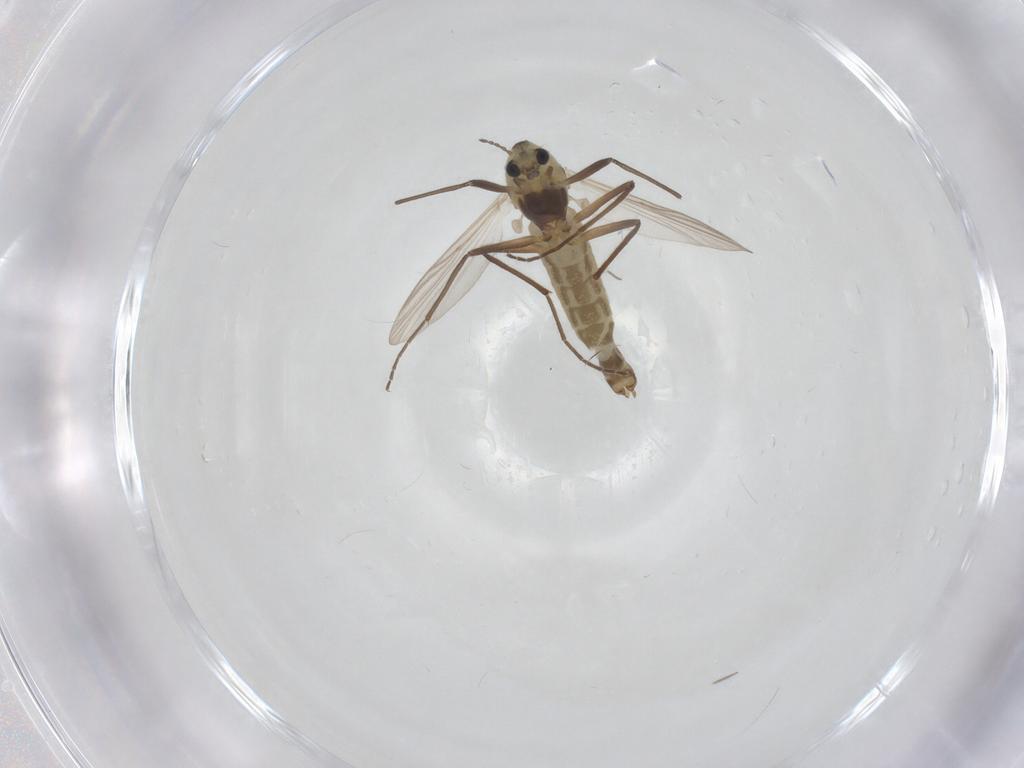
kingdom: Animalia
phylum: Arthropoda
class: Insecta
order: Diptera
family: Chironomidae
